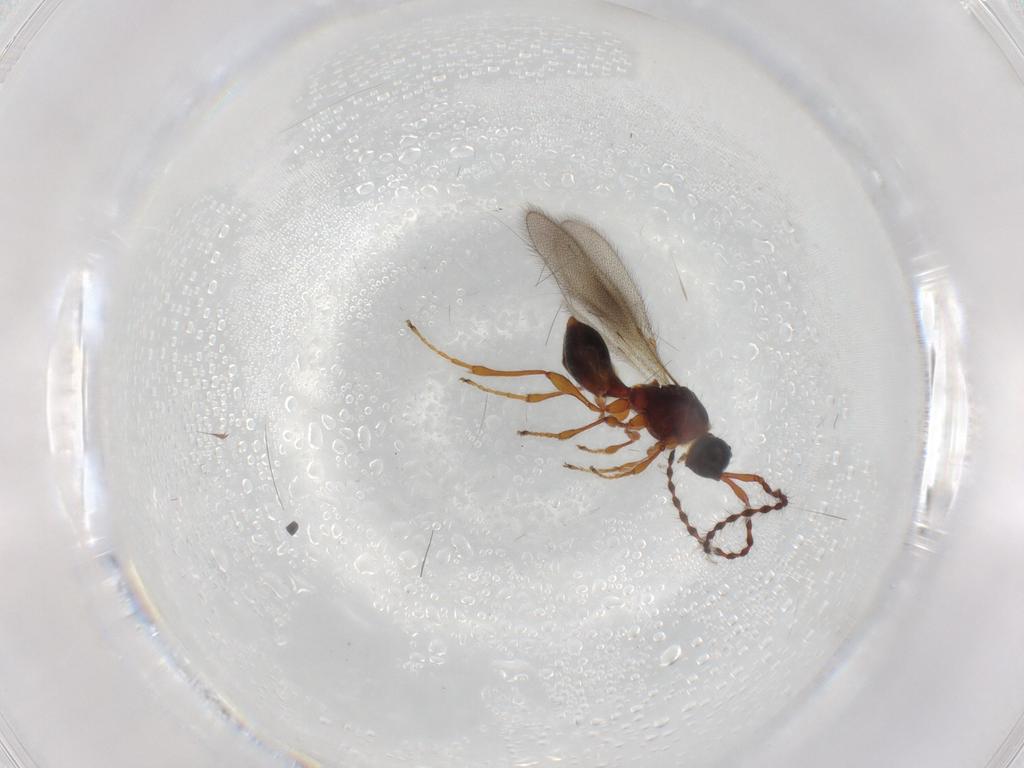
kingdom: Animalia
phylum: Arthropoda
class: Insecta
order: Hymenoptera
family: Diapriidae
